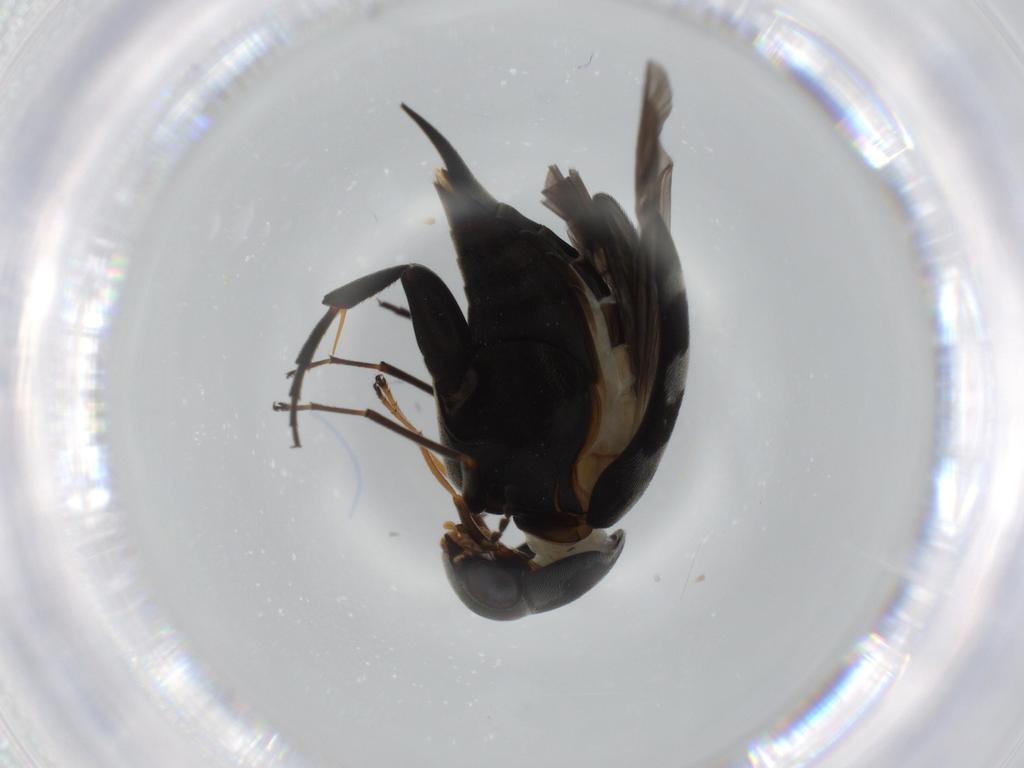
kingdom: Animalia
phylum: Arthropoda
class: Insecta
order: Coleoptera
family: Mordellidae
